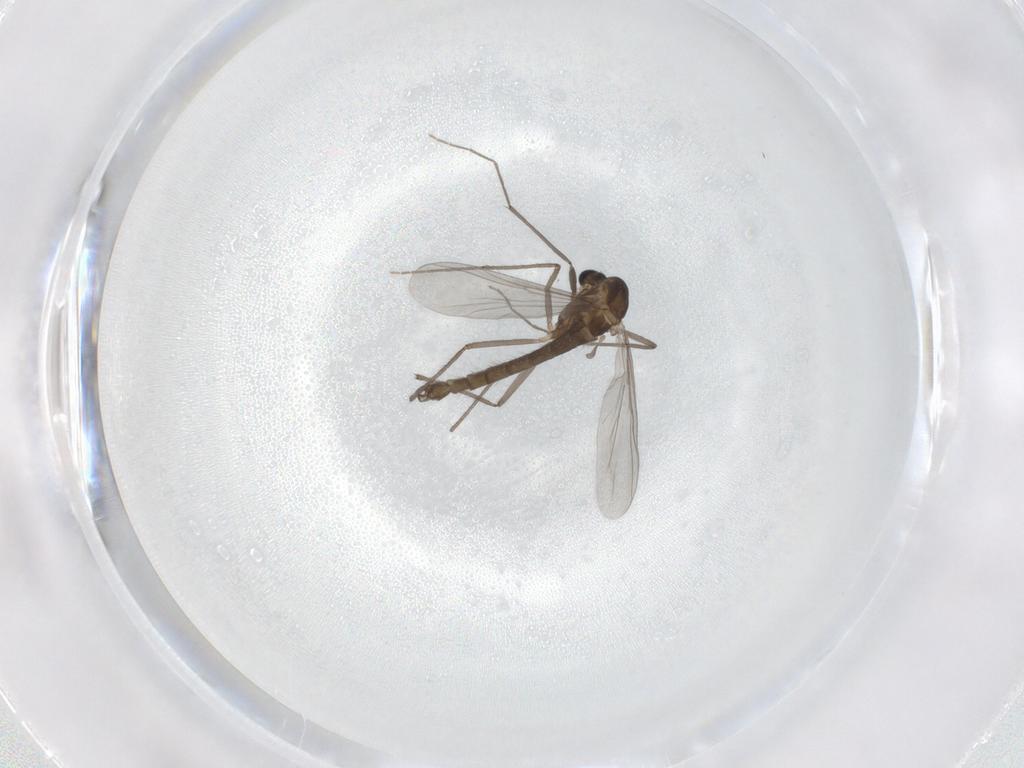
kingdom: Animalia
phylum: Arthropoda
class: Insecta
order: Diptera
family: Chironomidae
